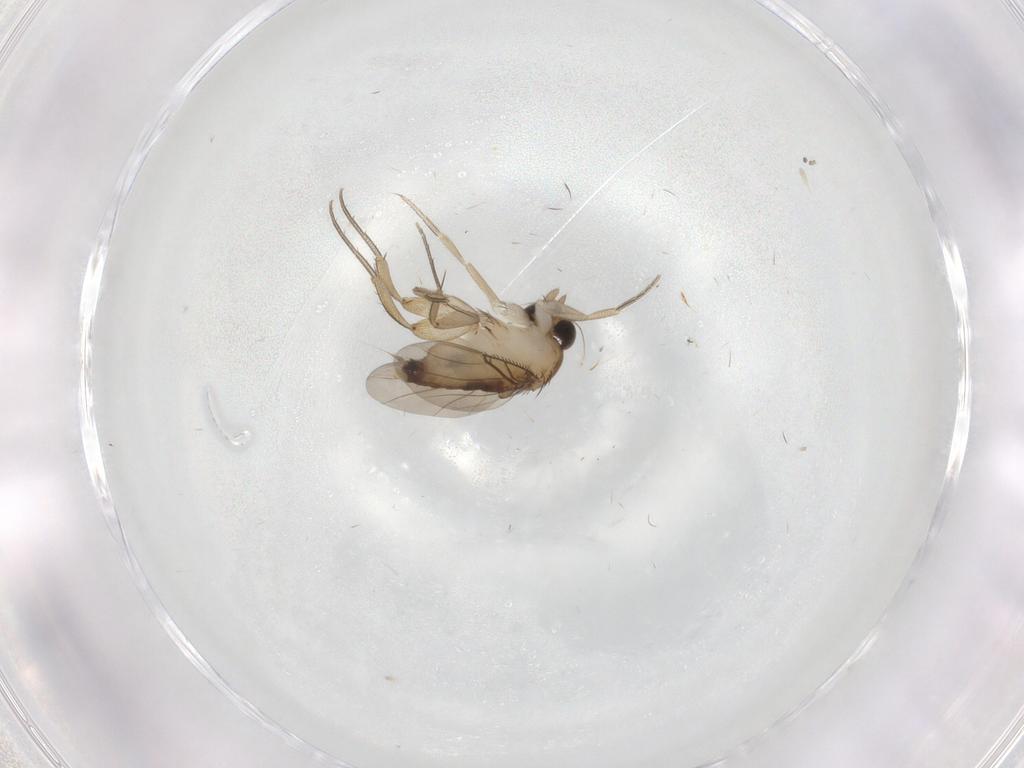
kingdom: Animalia
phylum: Arthropoda
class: Insecta
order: Diptera
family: Phoridae
